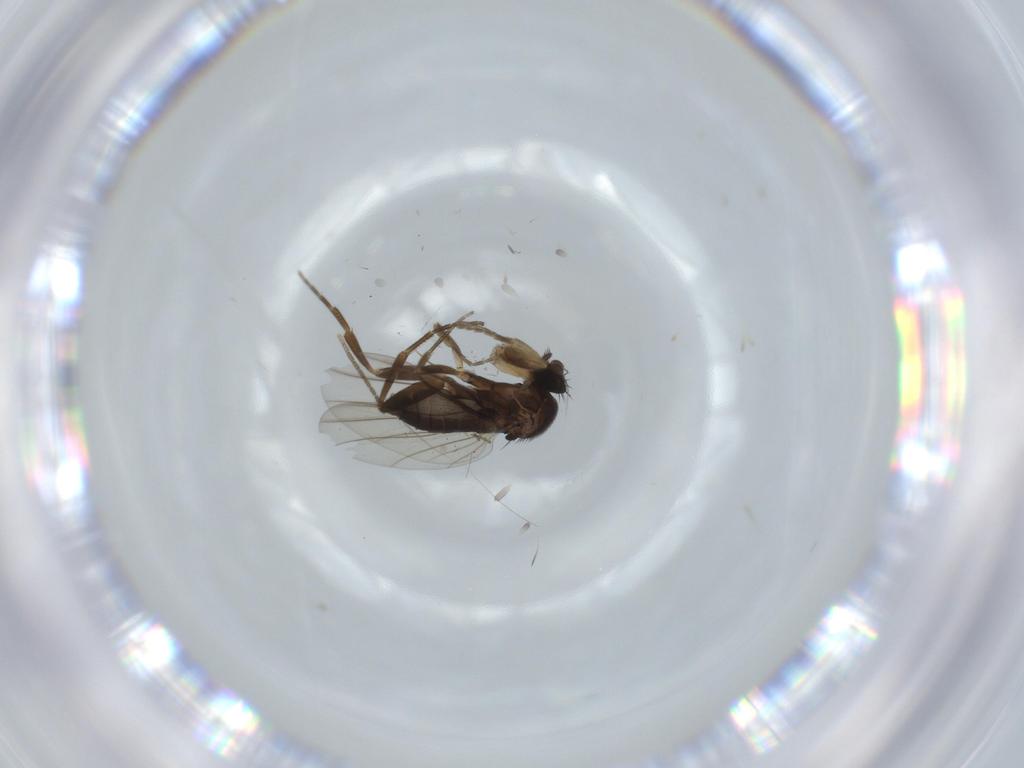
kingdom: Animalia
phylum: Arthropoda
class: Insecta
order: Diptera
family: Phoridae
